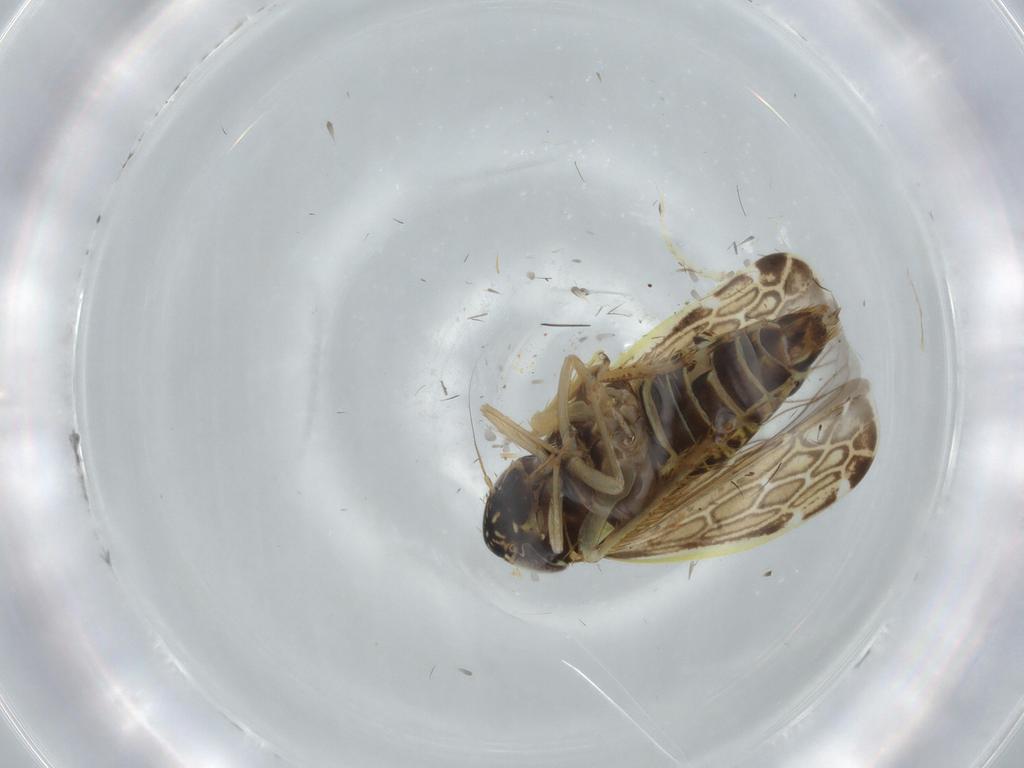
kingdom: Animalia
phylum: Arthropoda
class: Insecta
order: Hemiptera
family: Cicadellidae
